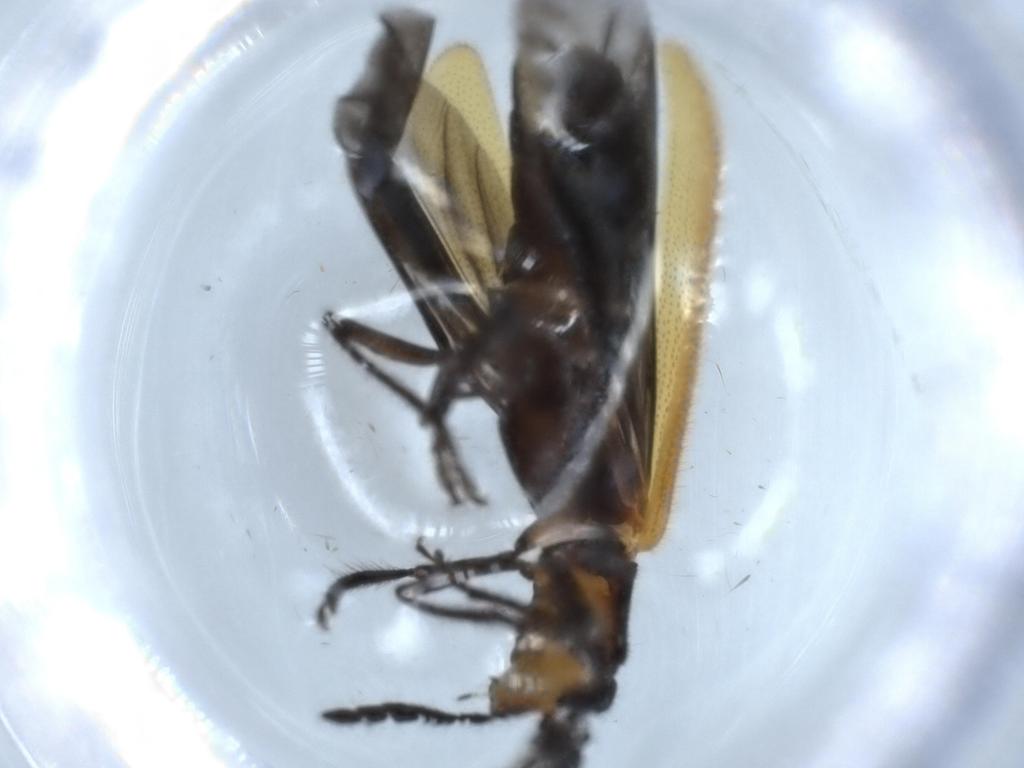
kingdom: Animalia
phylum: Arthropoda
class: Insecta
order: Coleoptera
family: Cleridae
